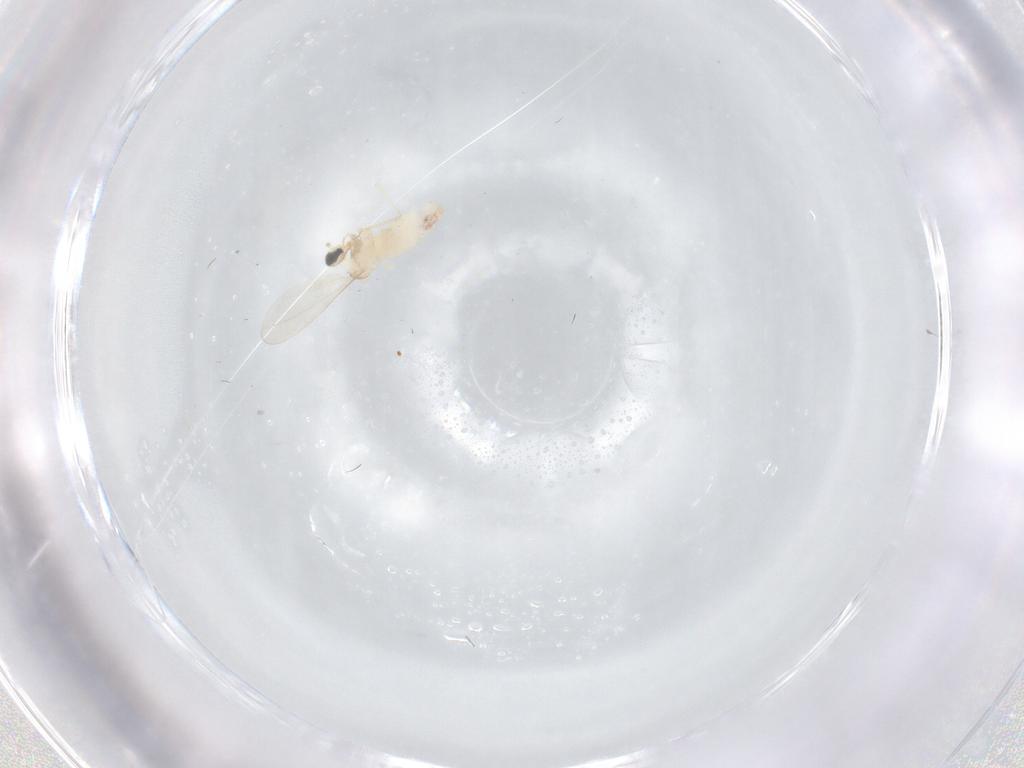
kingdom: Animalia
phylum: Arthropoda
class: Insecta
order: Diptera
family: Cecidomyiidae
